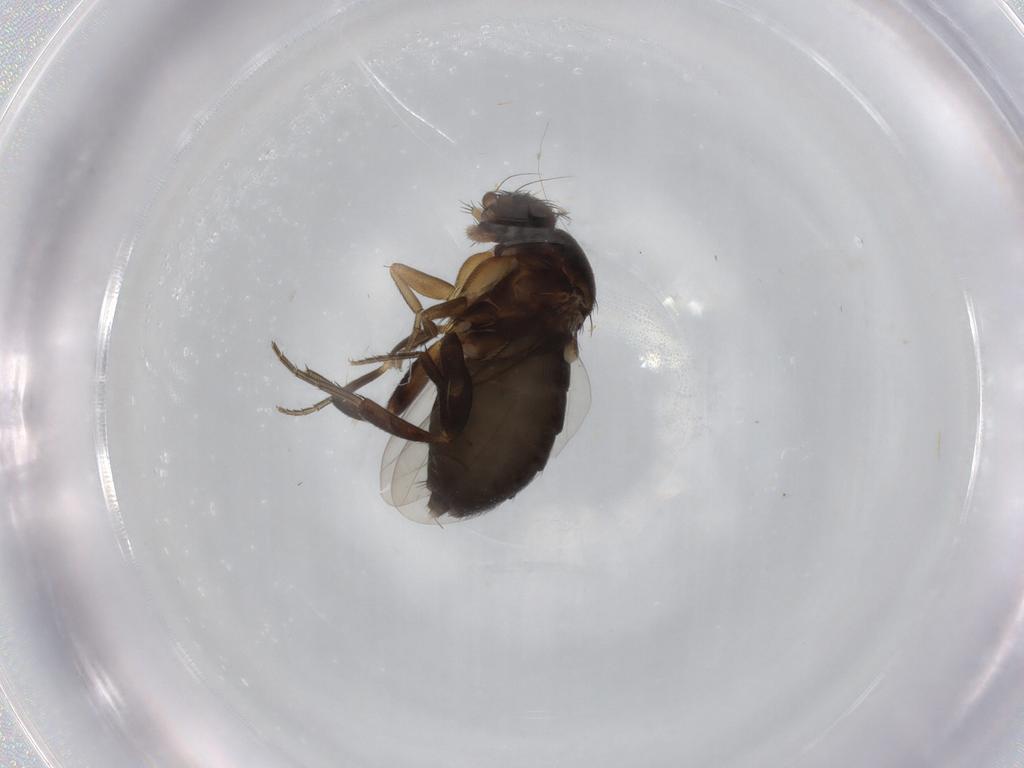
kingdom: Animalia
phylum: Arthropoda
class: Insecta
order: Diptera
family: Phoridae
